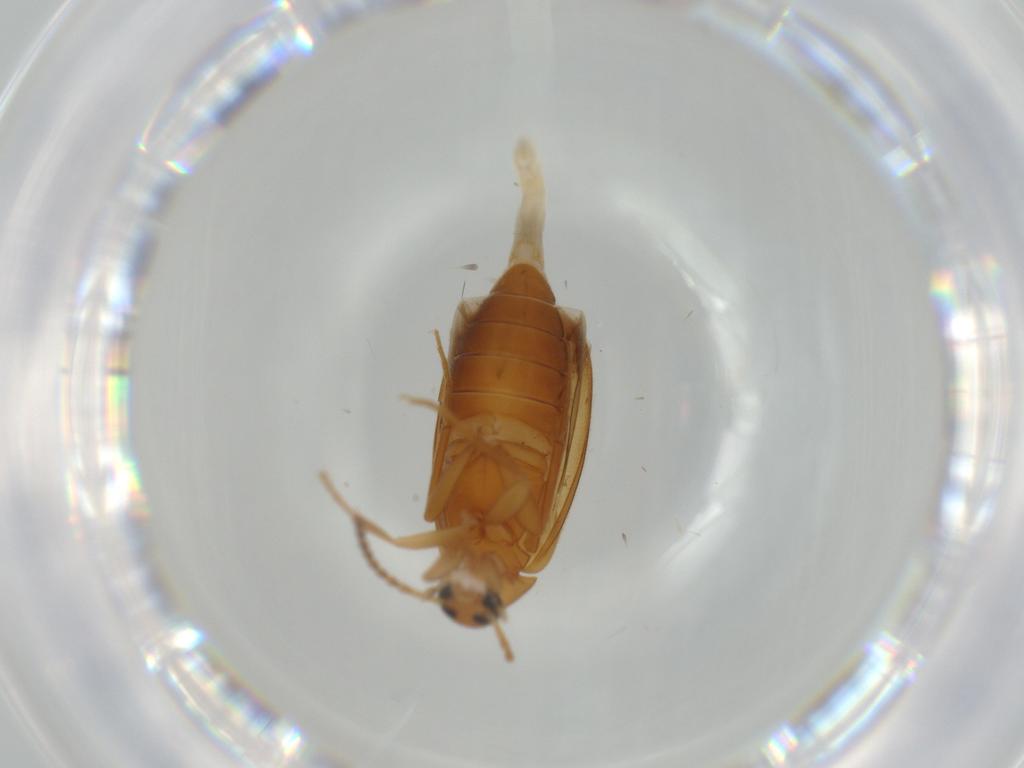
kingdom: Animalia
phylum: Arthropoda
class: Insecta
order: Coleoptera
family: Scraptiidae
